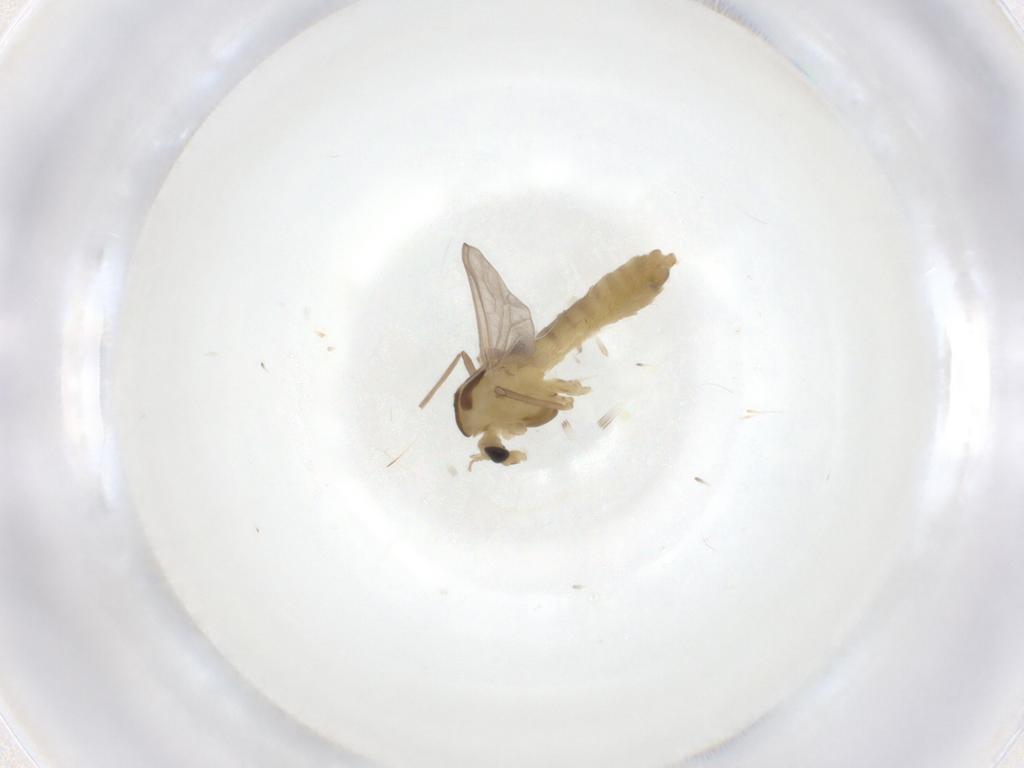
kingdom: Animalia
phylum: Arthropoda
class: Insecta
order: Diptera
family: Chironomidae
